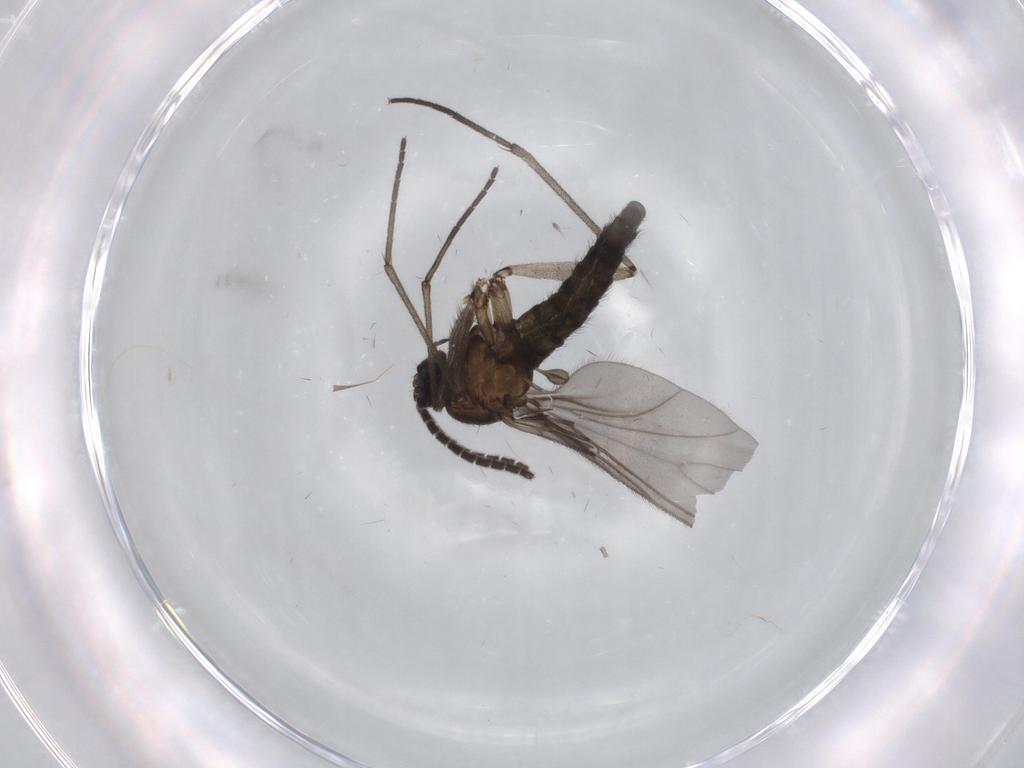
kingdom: Animalia
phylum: Arthropoda
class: Insecta
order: Diptera
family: Sciaridae
